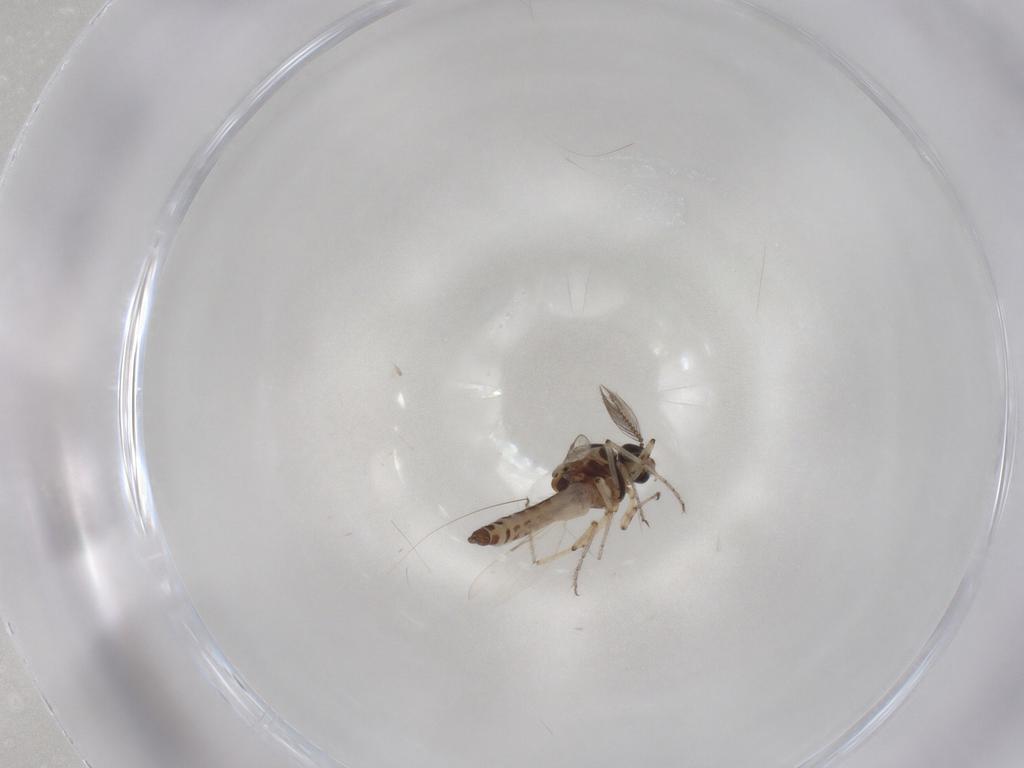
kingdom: Animalia
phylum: Arthropoda
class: Insecta
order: Diptera
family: Ceratopogonidae
